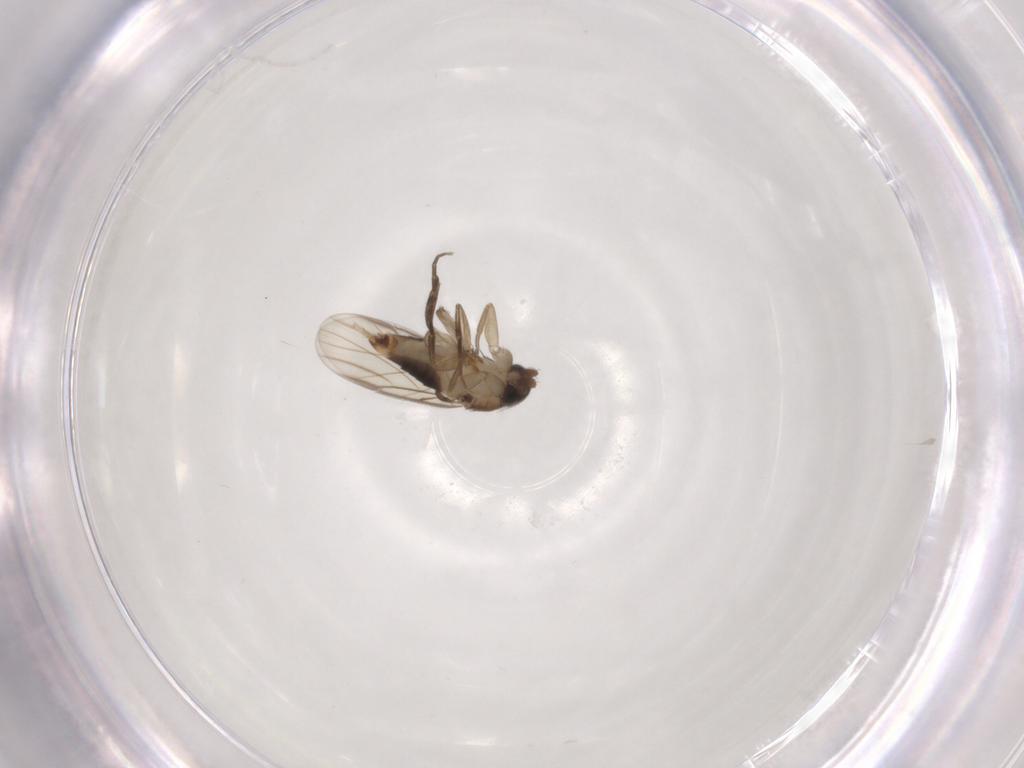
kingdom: Animalia
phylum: Arthropoda
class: Insecta
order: Diptera
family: Phoridae
